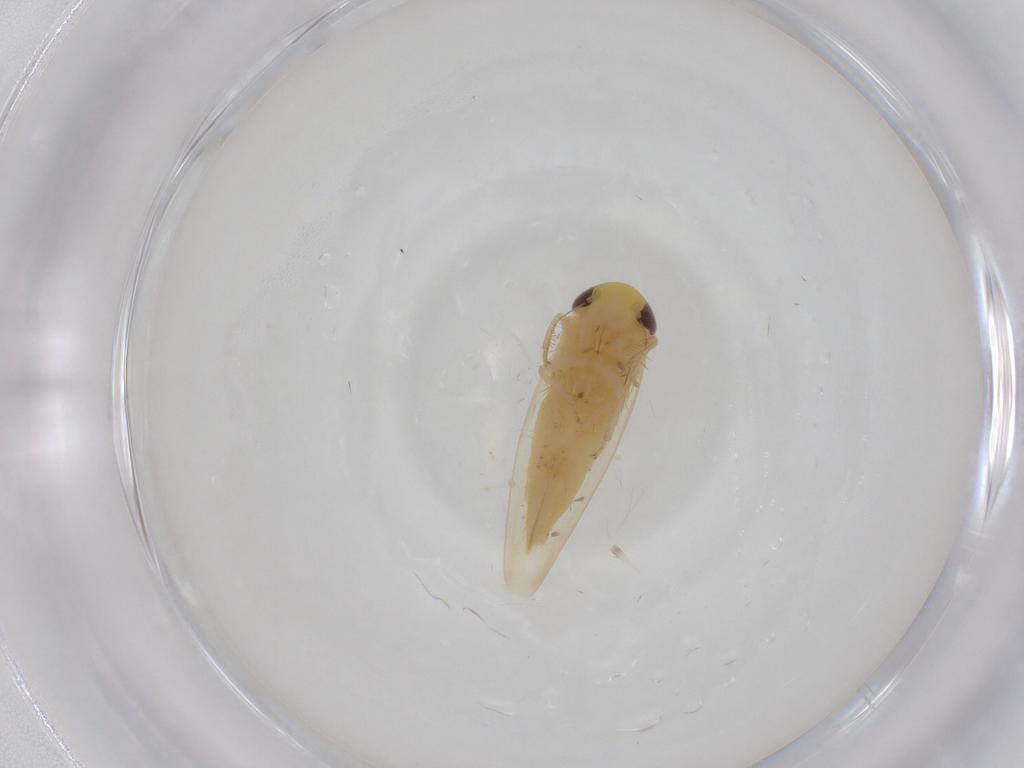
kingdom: Animalia
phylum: Arthropoda
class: Insecta
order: Hemiptera
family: Cicadellidae
